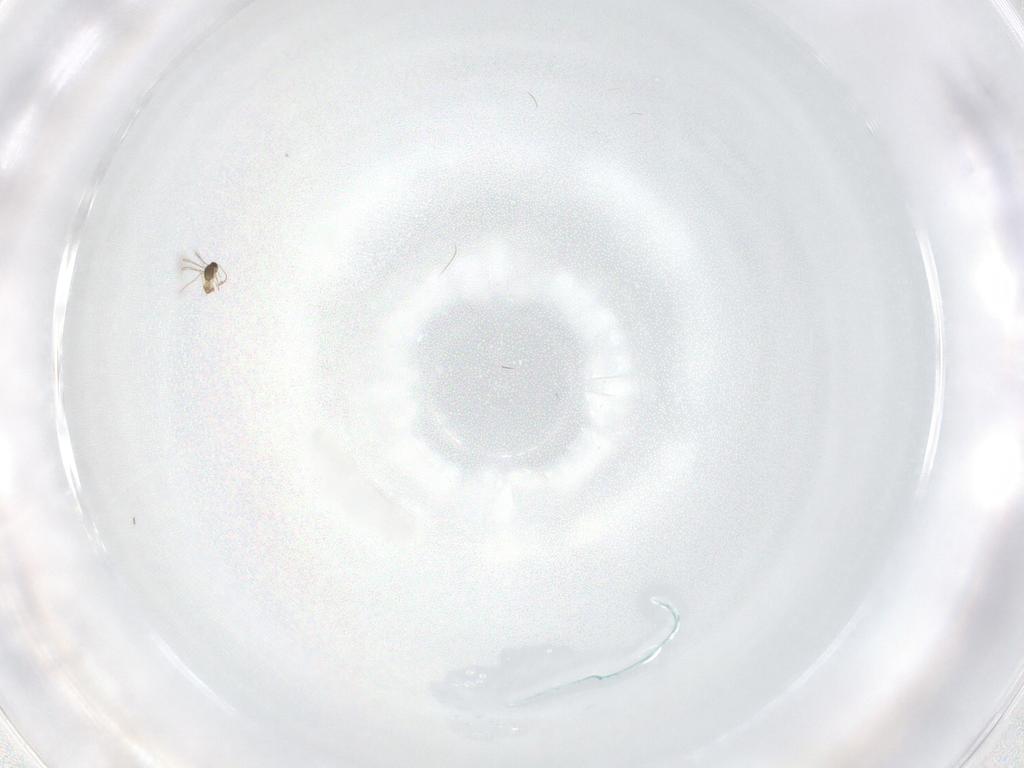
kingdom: Animalia
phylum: Arthropoda
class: Insecta
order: Hymenoptera
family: Mymaridae
